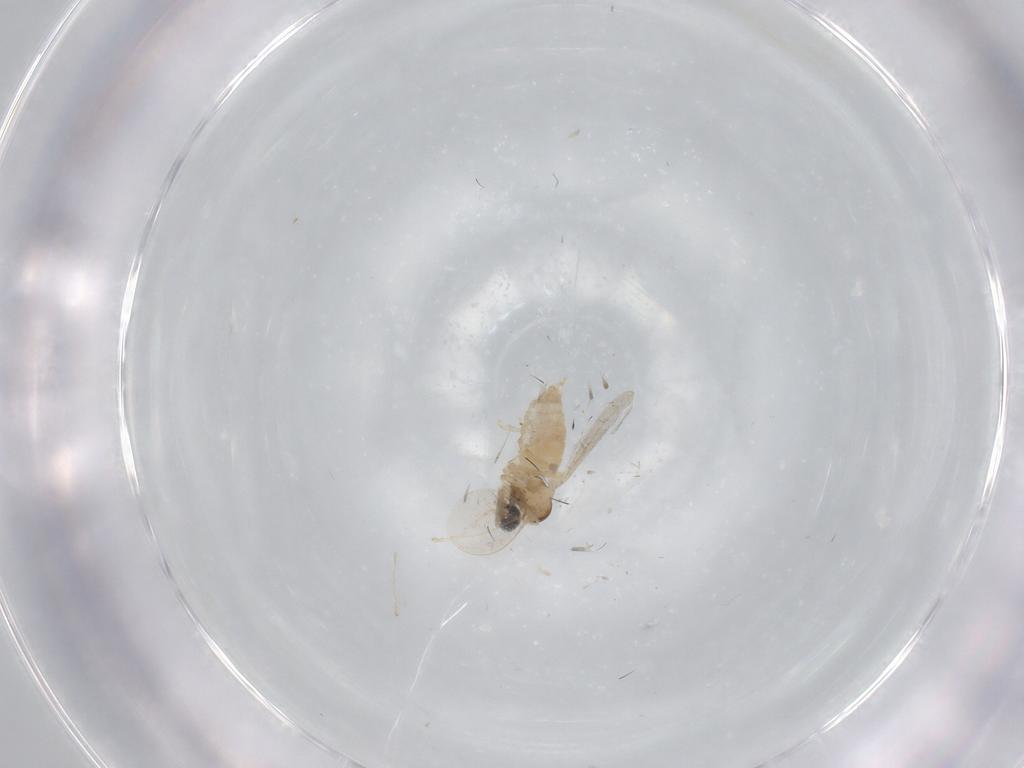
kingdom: Animalia
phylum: Arthropoda
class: Insecta
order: Diptera
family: Cecidomyiidae
